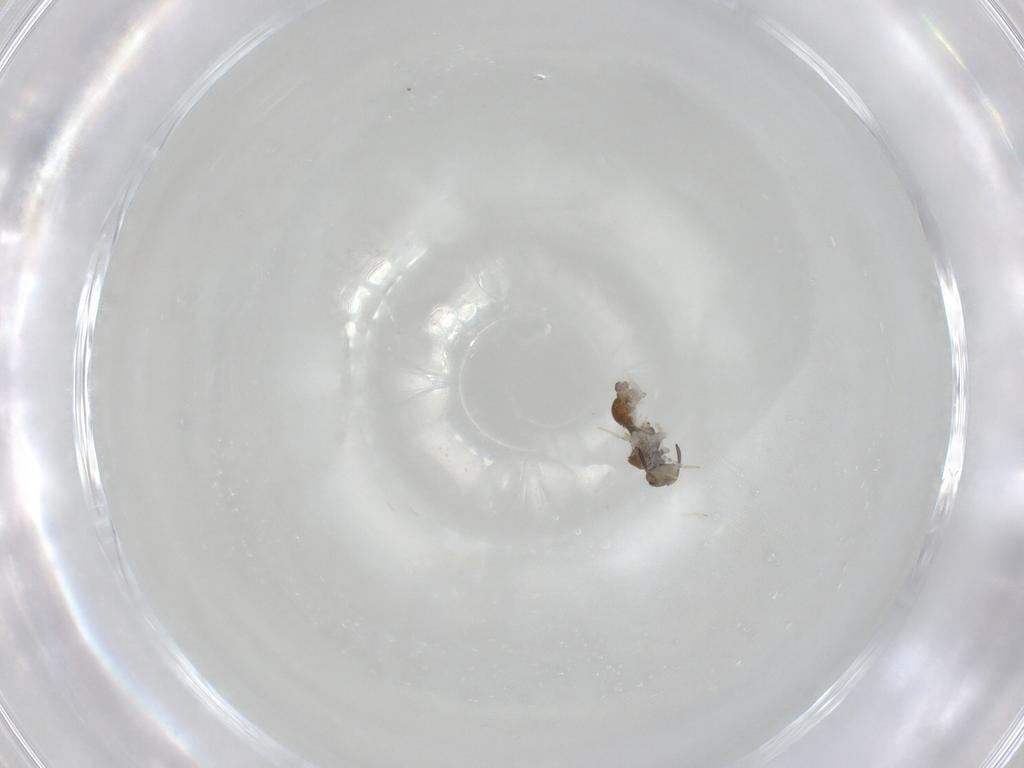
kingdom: Animalia
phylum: Arthropoda
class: Collembola
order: Symphypleona
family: Katiannidae
